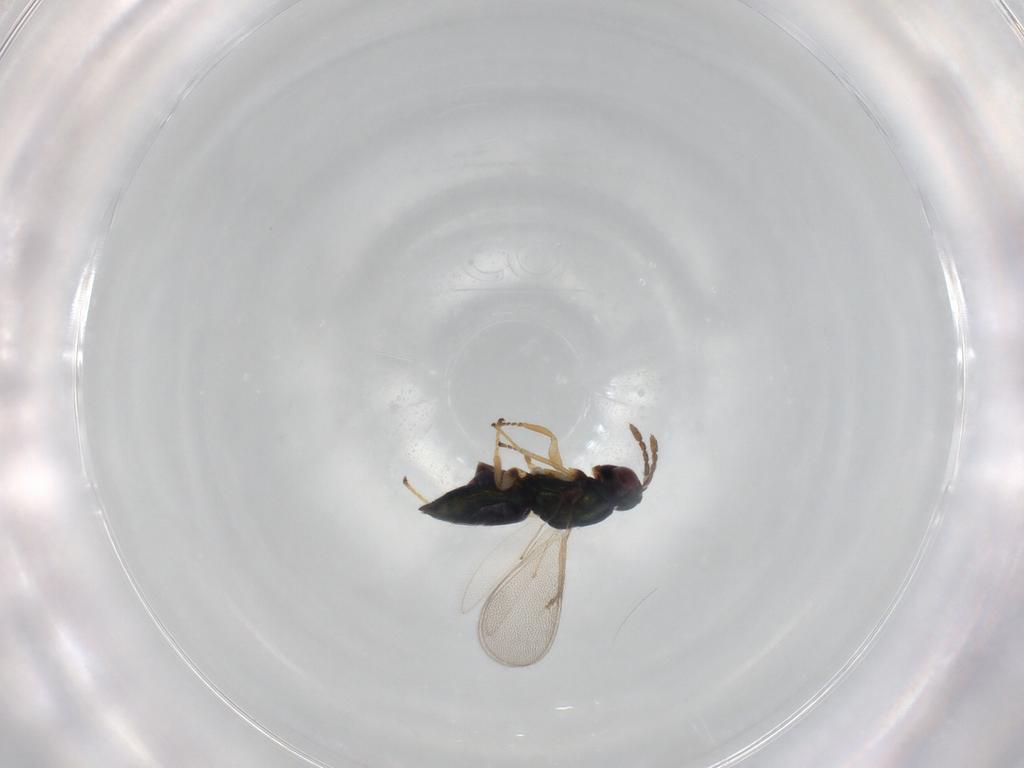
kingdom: Animalia
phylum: Arthropoda
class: Insecta
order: Hymenoptera
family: Eulophidae
